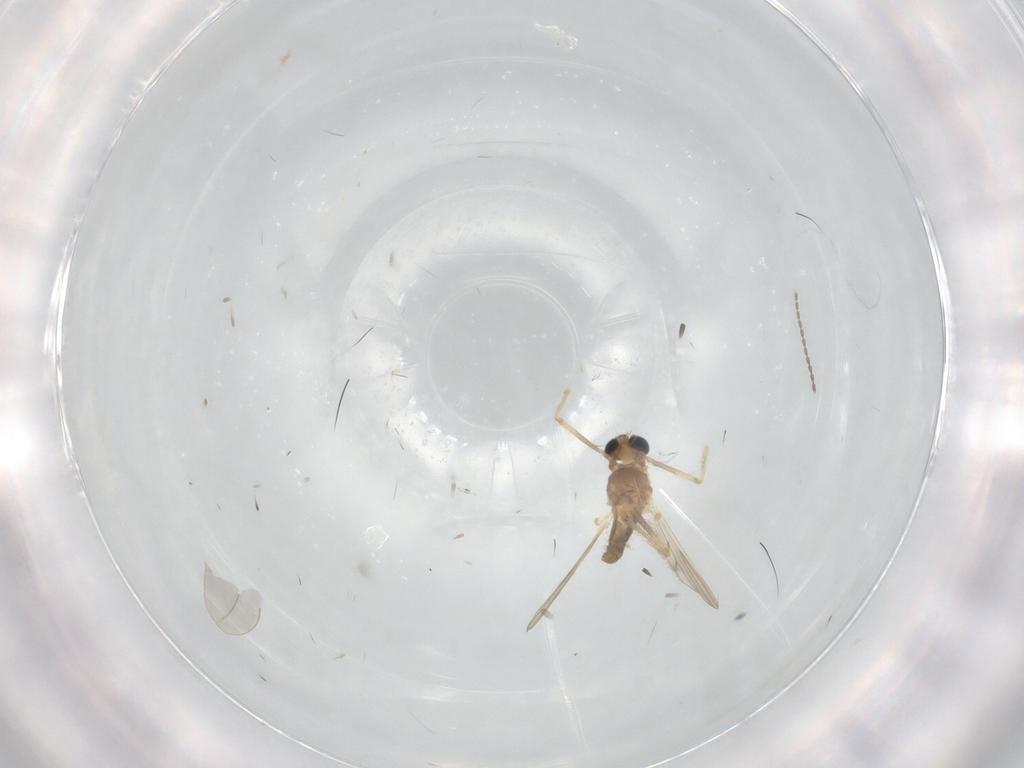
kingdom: Animalia
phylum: Arthropoda
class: Insecta
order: Diptera
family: Chironomidae
